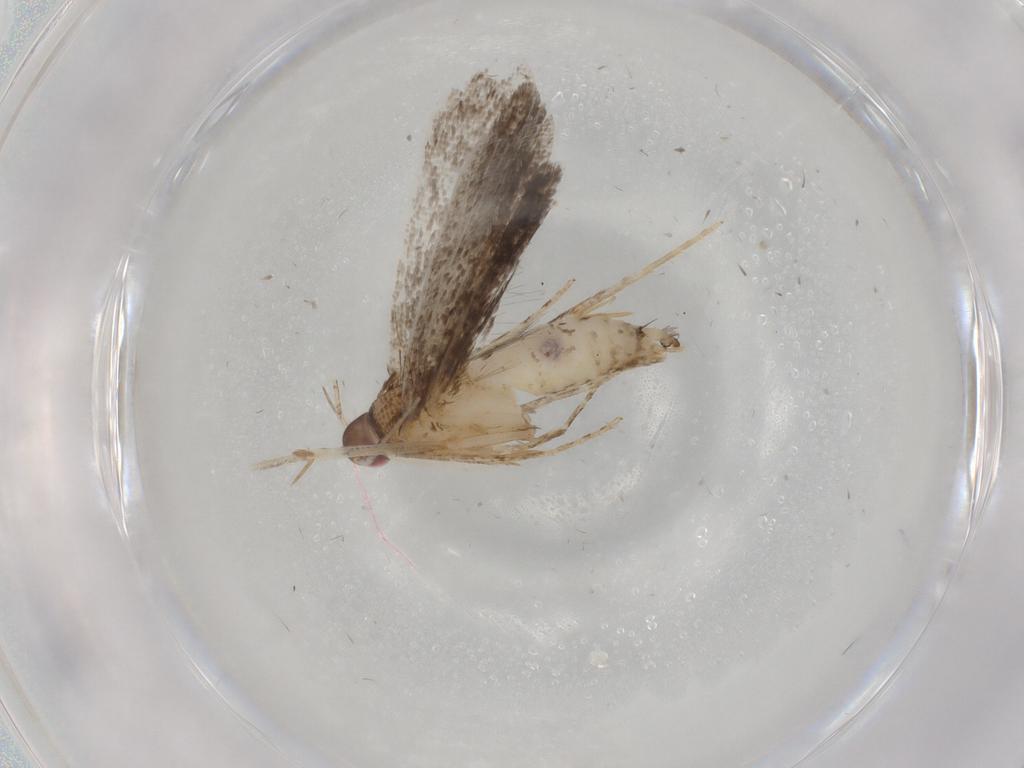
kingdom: Animalia
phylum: Arthropoda
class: Insecta
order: Lepidoptera
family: Gelechiidae
